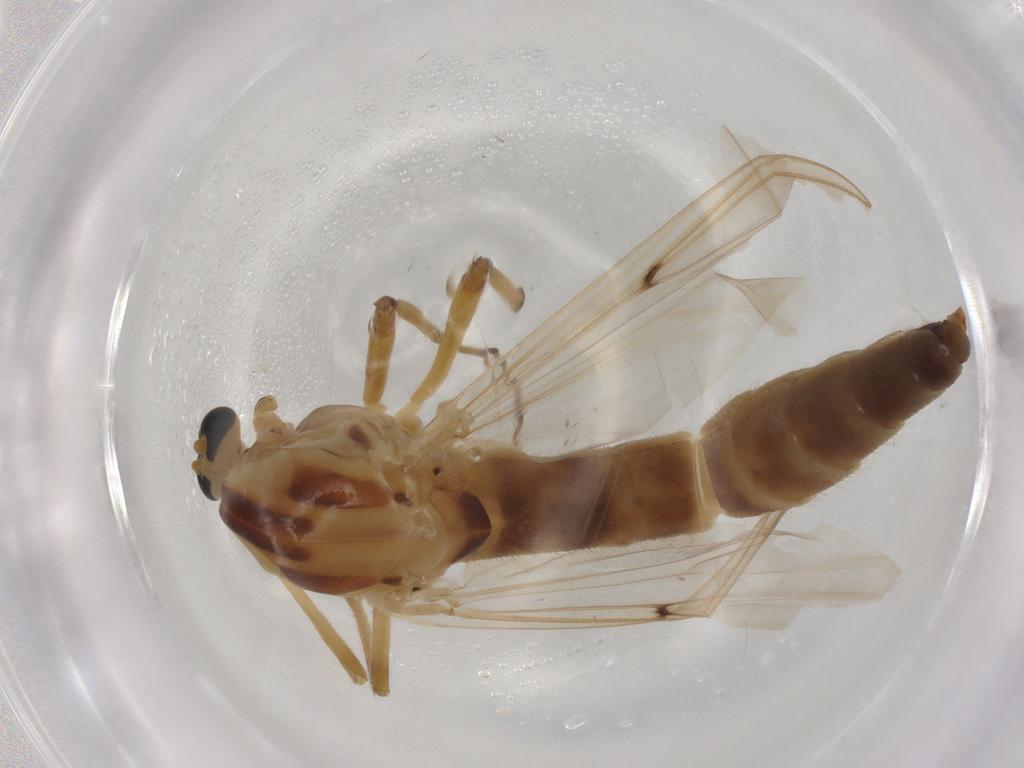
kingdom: Animalia
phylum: Arthropoda
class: Insecta
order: Diptera
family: Chironomidae
